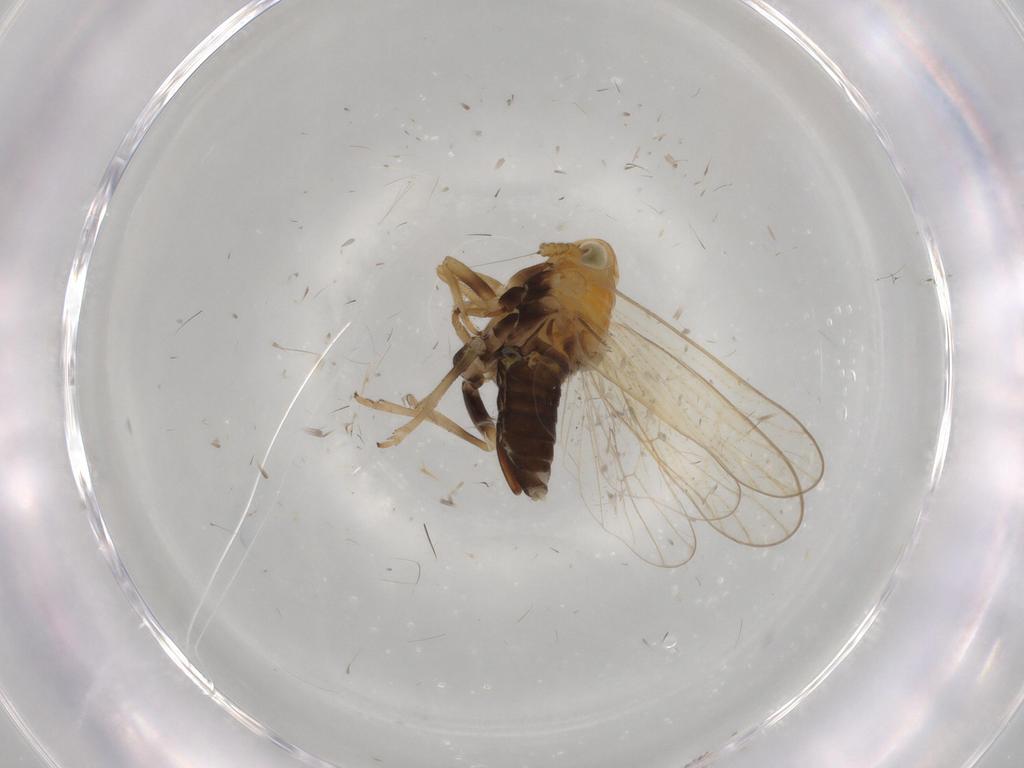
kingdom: Animalia
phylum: Arthropoda
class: Insecta
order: Hemiptera
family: Delphacidae
